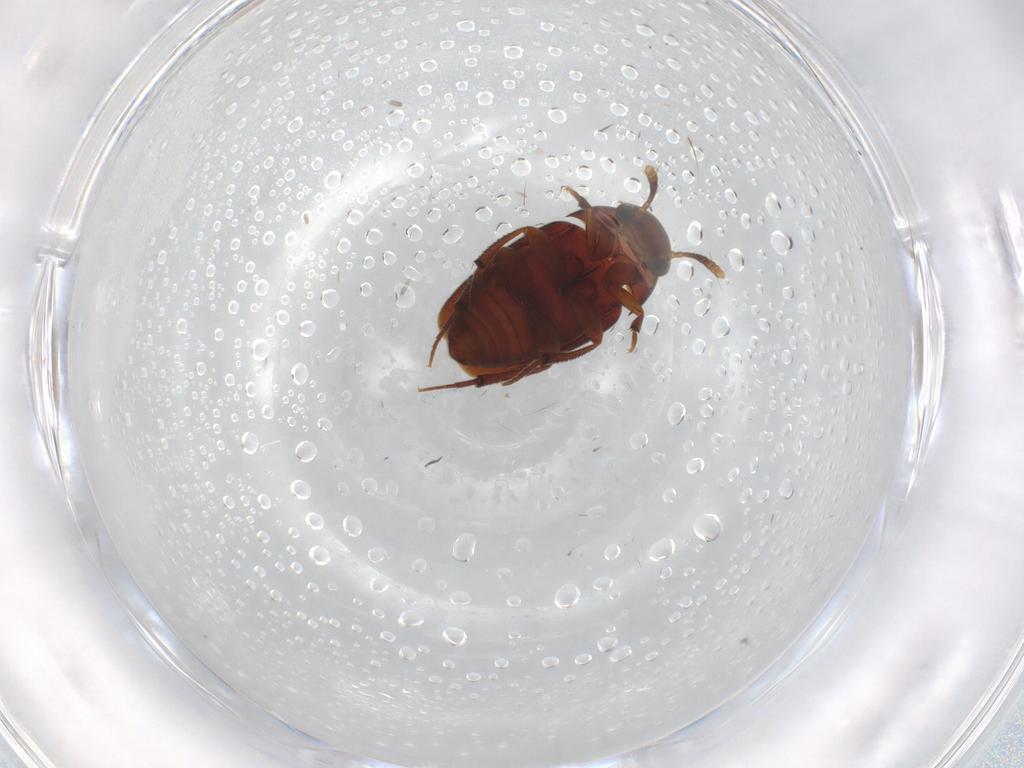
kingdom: Animalia
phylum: Arthropoda
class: Insecta
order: Coleoptera
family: Leiodidae
